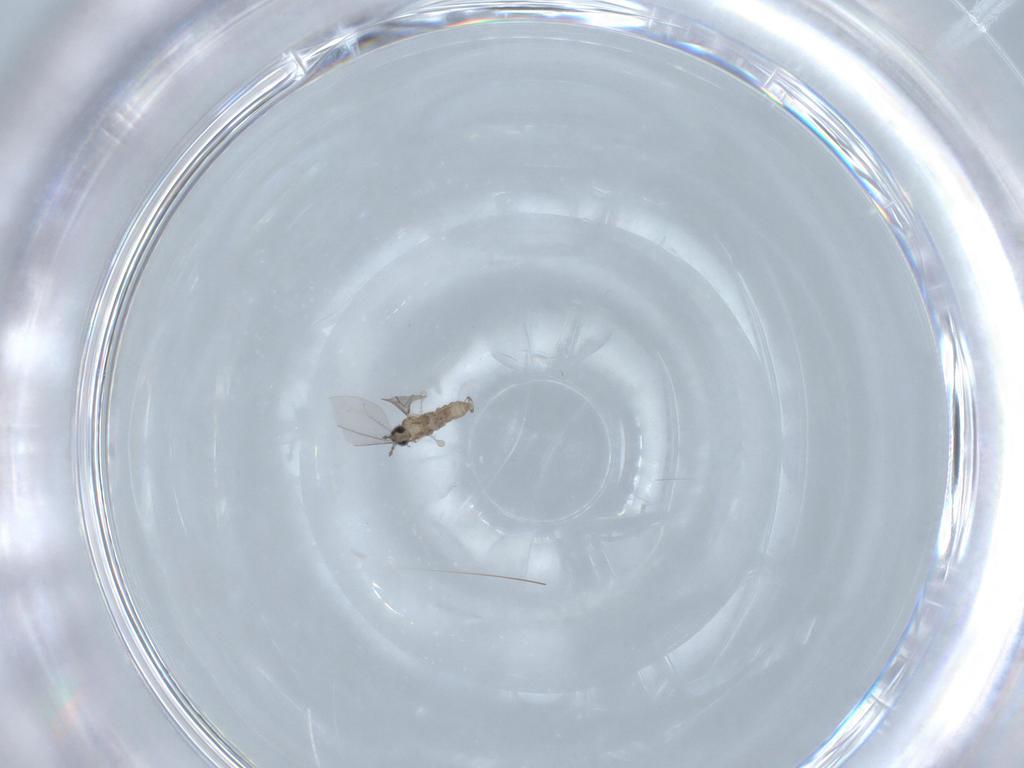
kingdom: Animalia
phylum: Arthropoda
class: Insecta
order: Diptera
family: Cecidomyiidae
